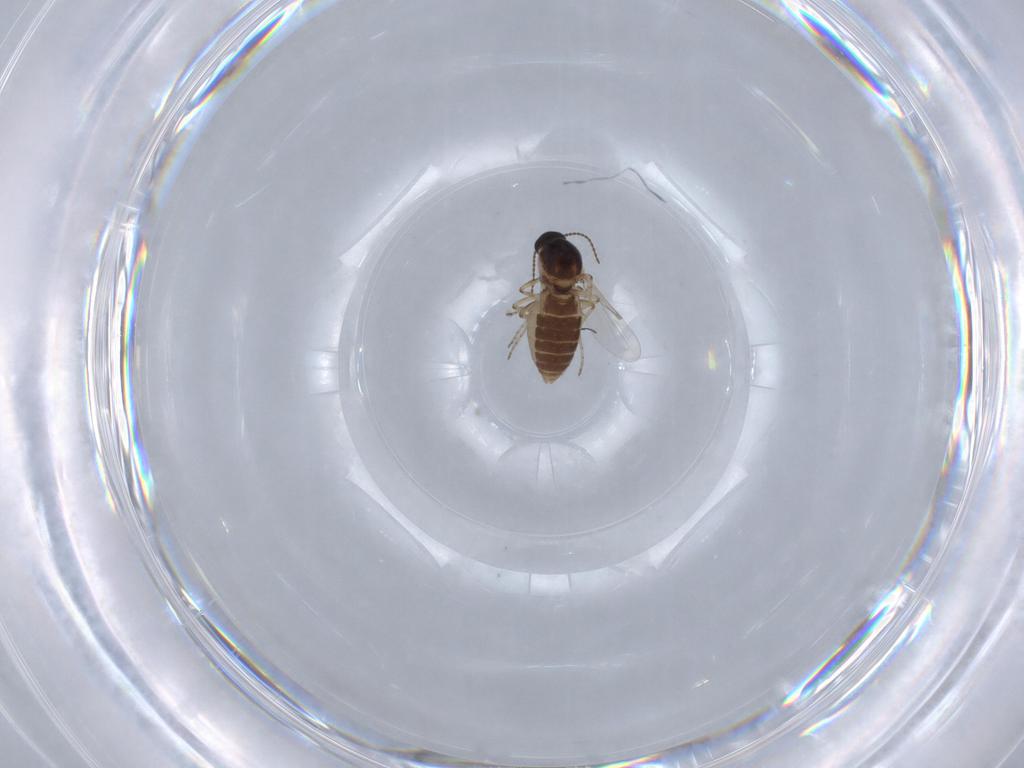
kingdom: Animalia
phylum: Arthropoda
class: Insecta
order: Diptera
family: Ceratopogonidae
